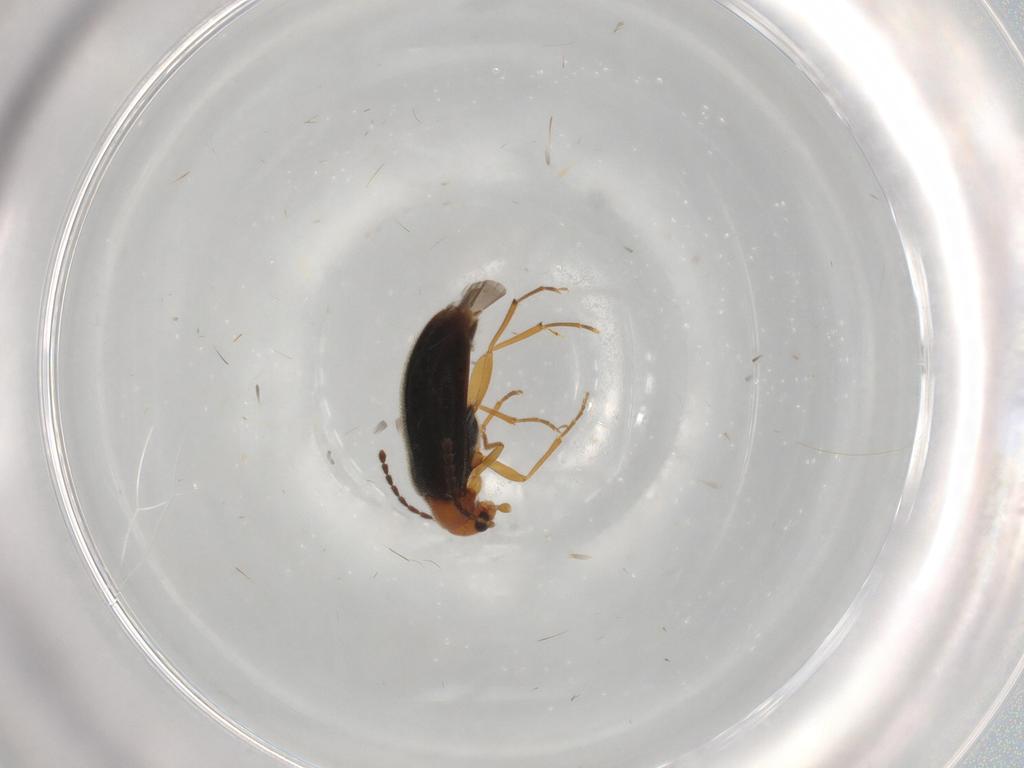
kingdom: Animalia
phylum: Arthropoda
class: Insecta
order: Coleoptera
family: Melandryidae
